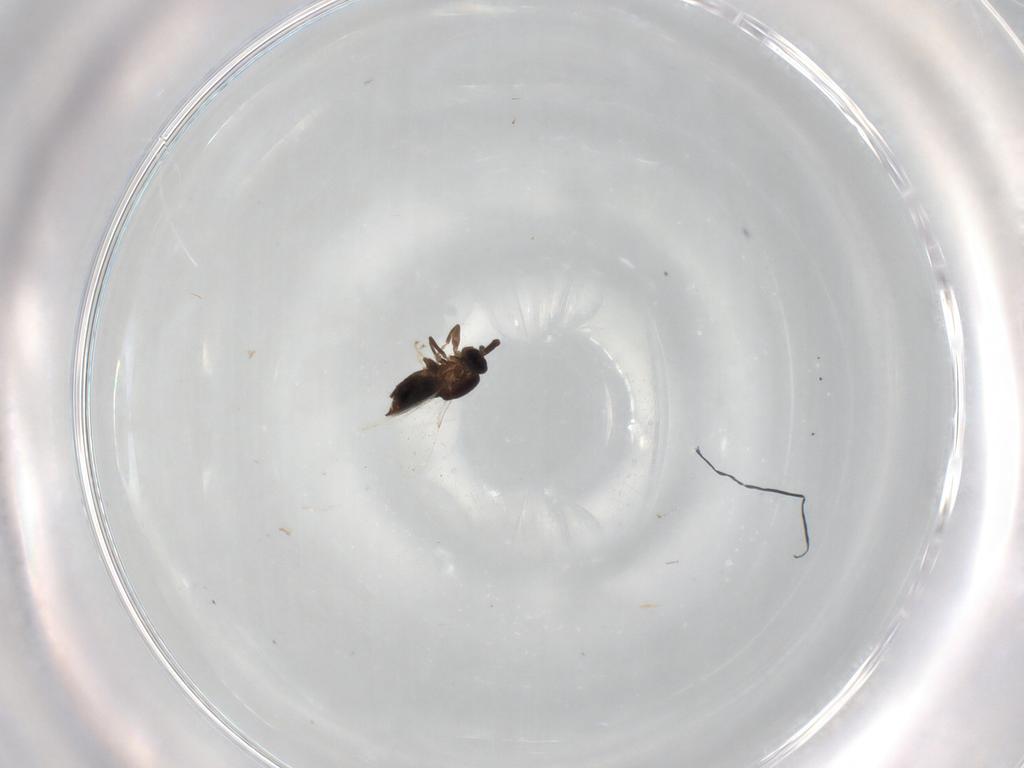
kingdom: Animalia
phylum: Arthropoda
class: Insecta
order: Diptera
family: Scatopsidae
